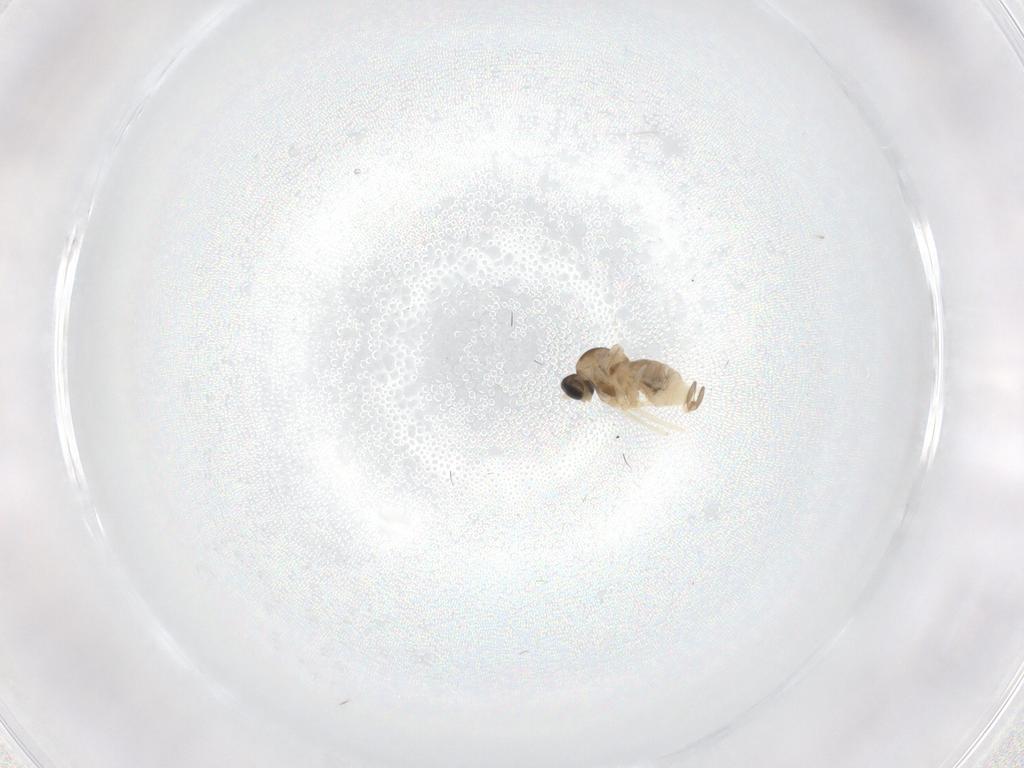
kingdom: Animalia
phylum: Arthropoda
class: Insecta
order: Diptera
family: Cecidomyiidae
